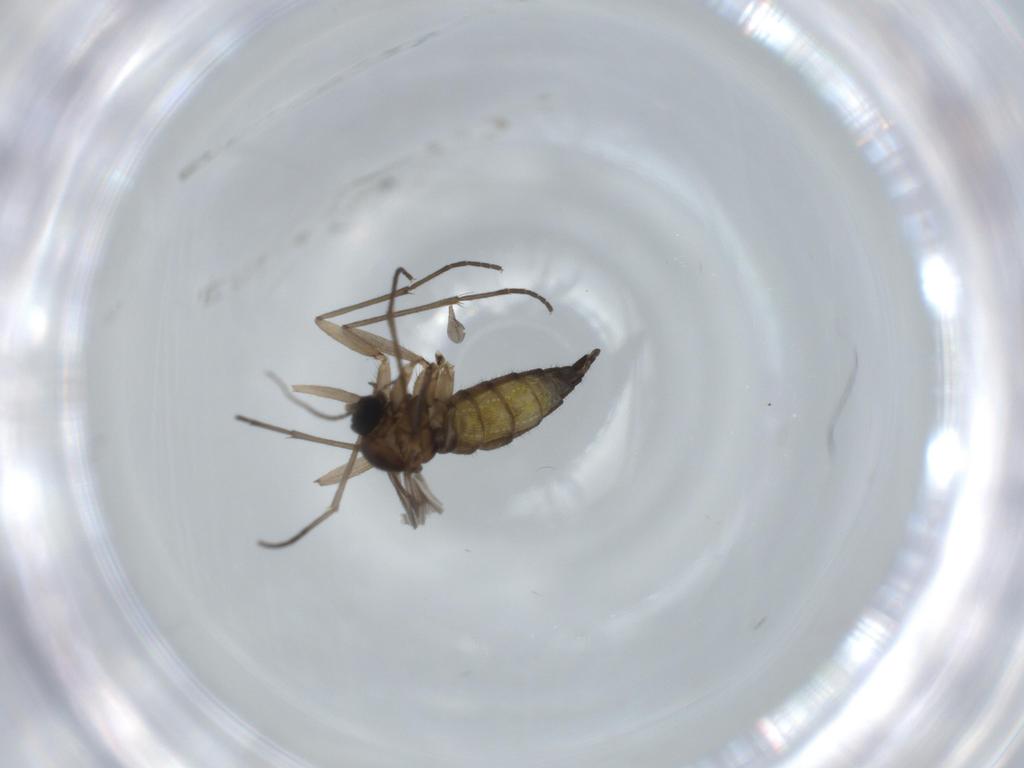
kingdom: Animalia
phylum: Arthropoda
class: Insecta
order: Diptera
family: Sciaridae
